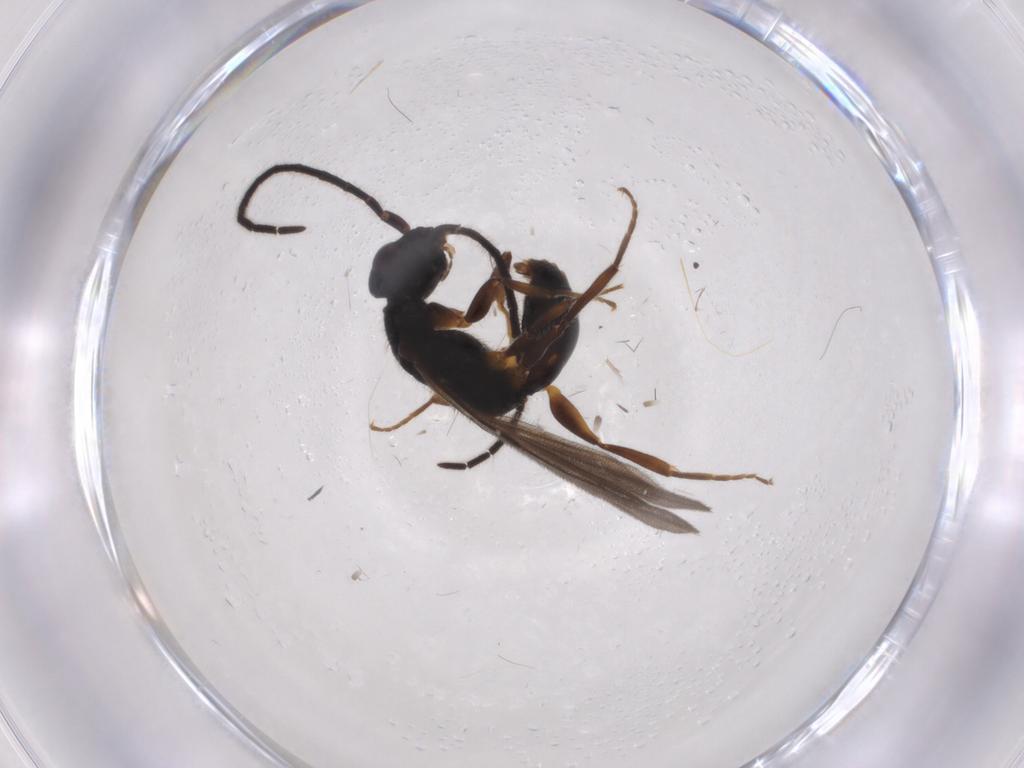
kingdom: Animalia
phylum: Arthropoda
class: Insecta
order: Hymenoptera
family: Bethylidae
